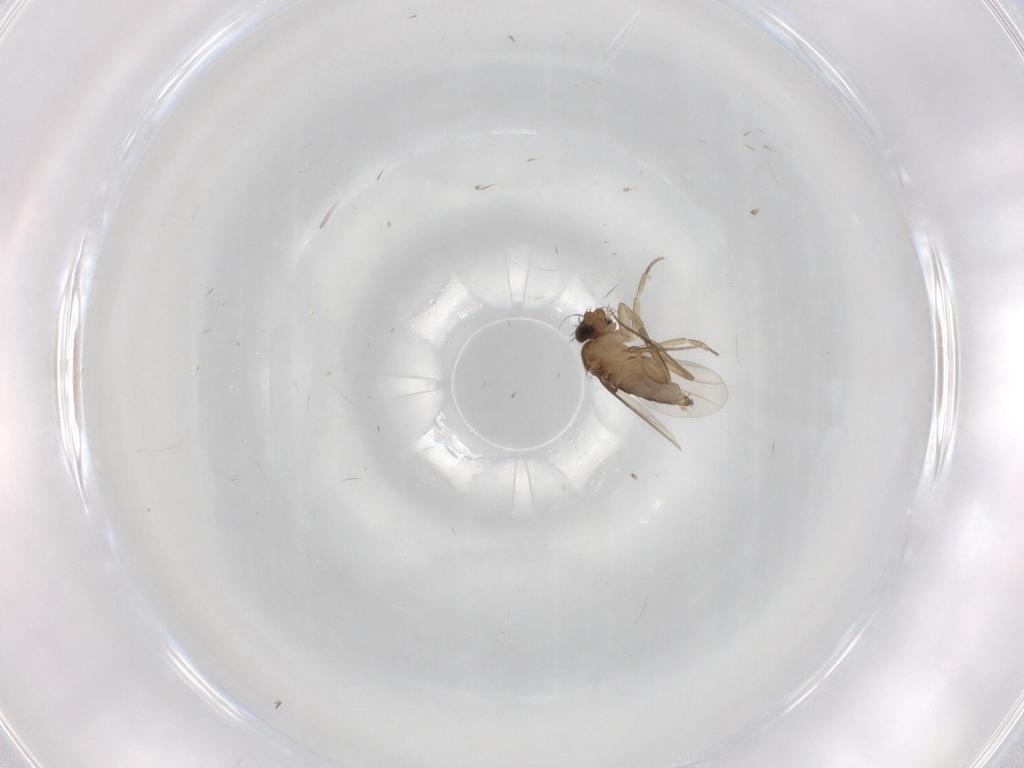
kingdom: Animalia
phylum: Arthropoda
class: Insecta
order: Diptera
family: Phoridae
